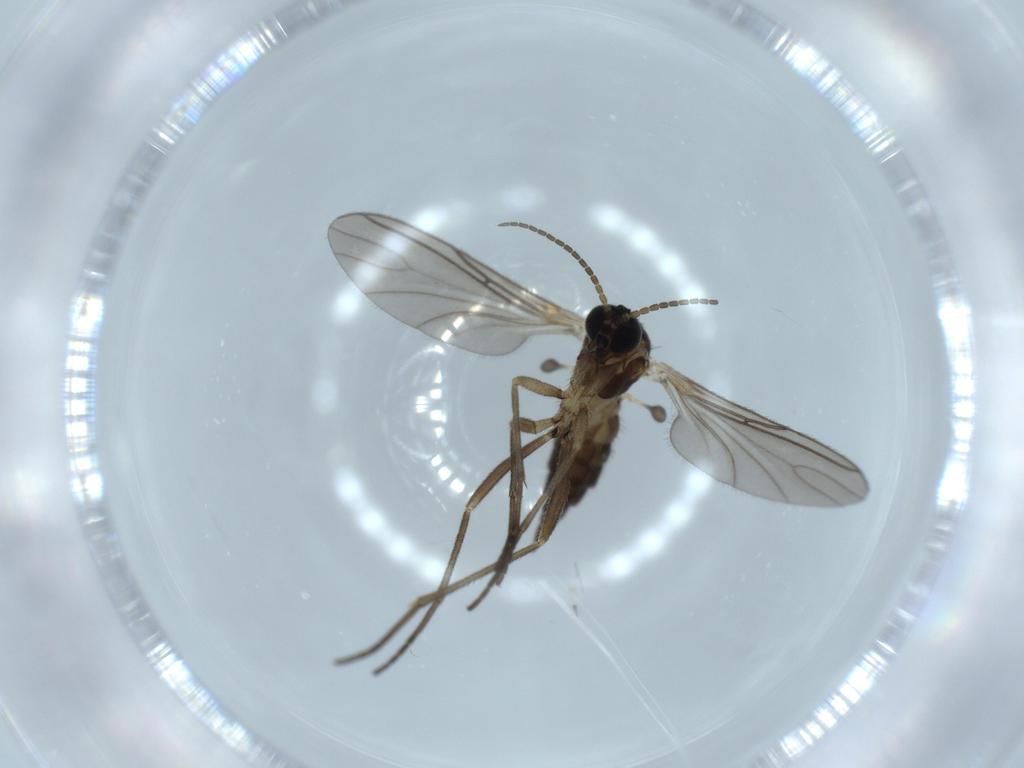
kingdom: Animalia
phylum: Arthropoda
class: Insecta
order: Diptera
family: Sciaridae
